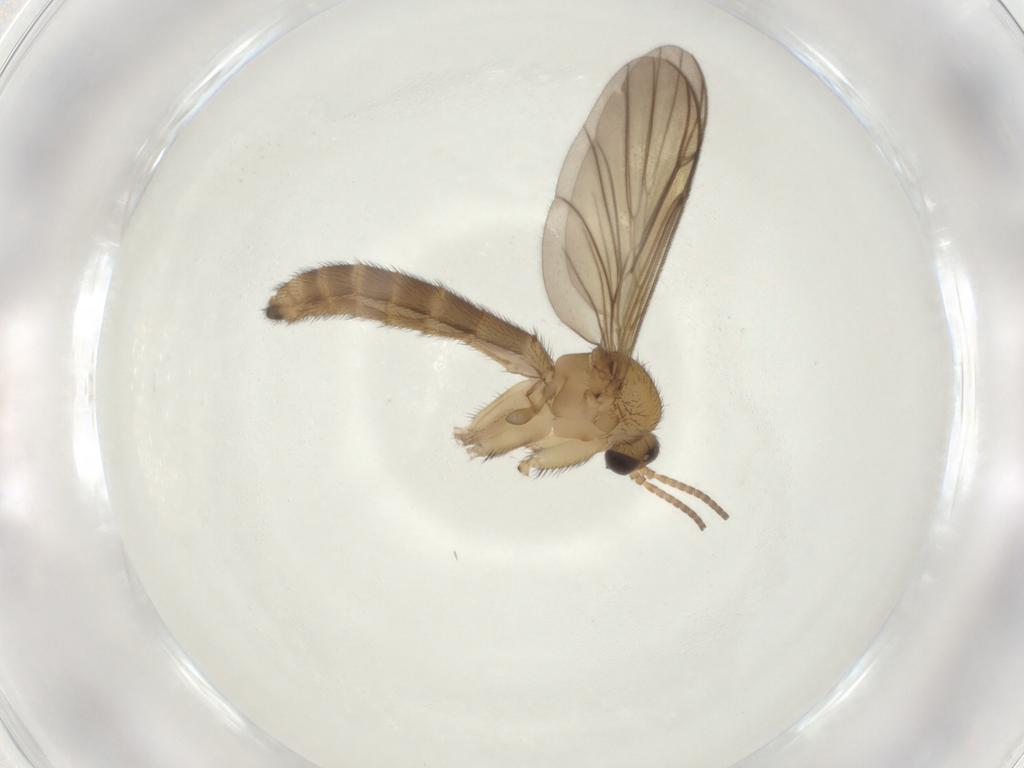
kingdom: Animalia
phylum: Arthropoda
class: Insecta
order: Diptera
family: Keroplatidae
